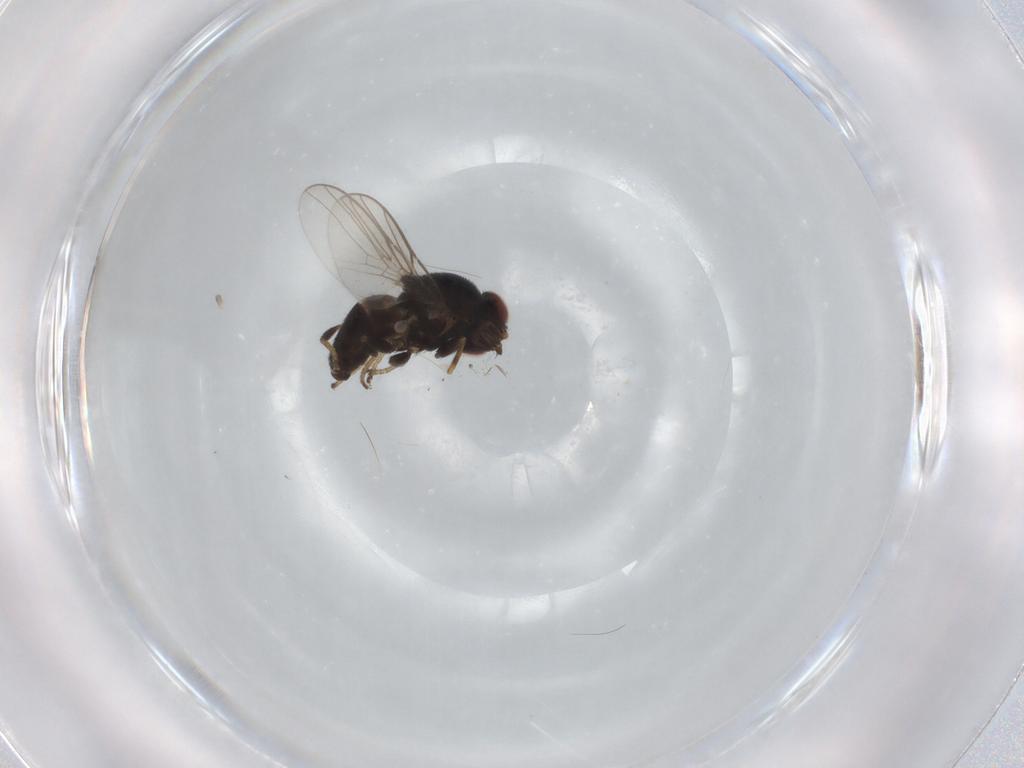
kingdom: Animalia
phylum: Arthropoda
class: Insecta
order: Diptera
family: Chloropidae
